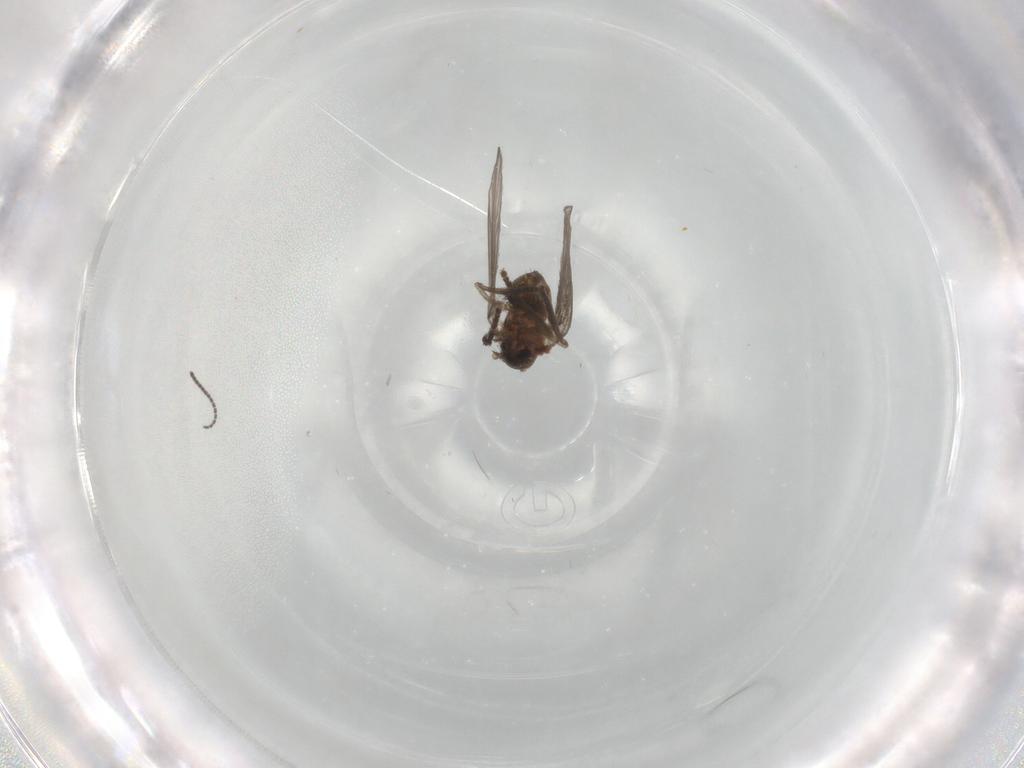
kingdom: Animalia
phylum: Arthropoda
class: Insecta
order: Diptera
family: Psychodidae
